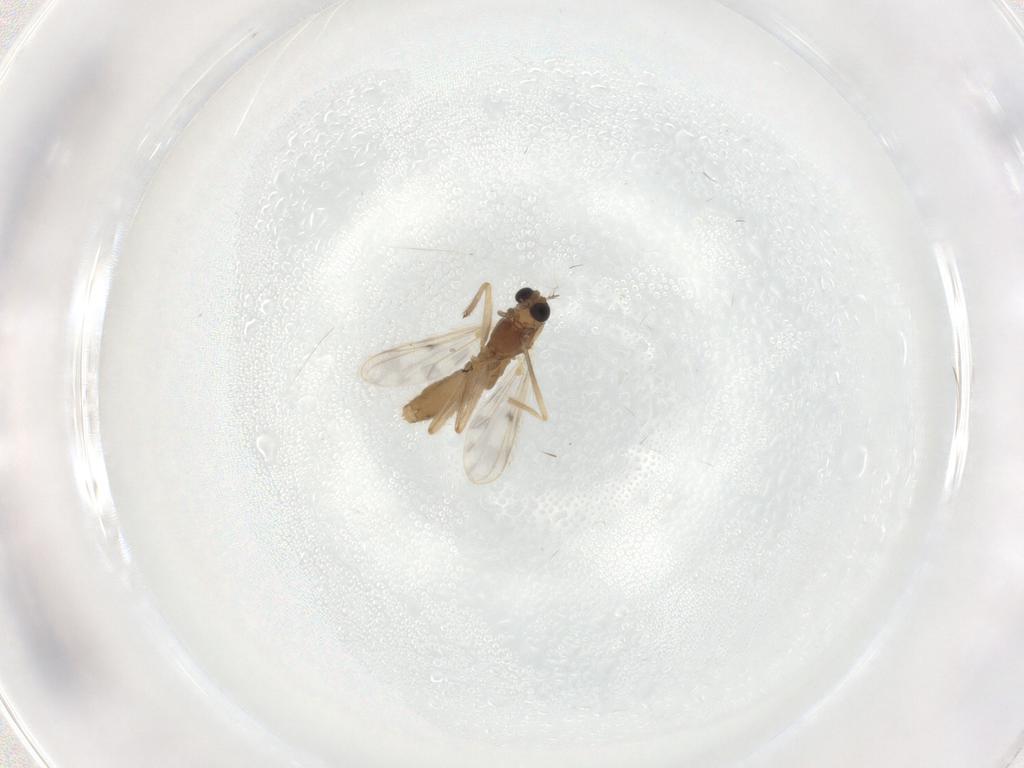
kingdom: Animalia
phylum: Arthropoda
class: Insecta
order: Diptera
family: Chironomidae
